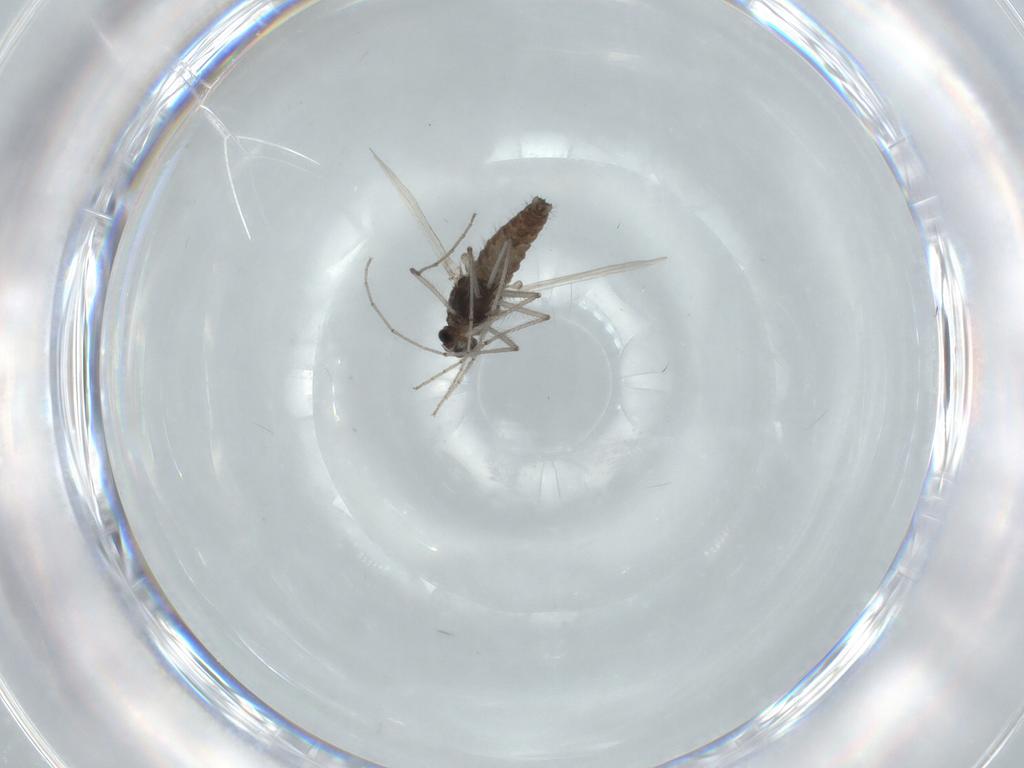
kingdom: Animalia
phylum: Arthropoda
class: Insecta
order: Diptera
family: Chironomidae
